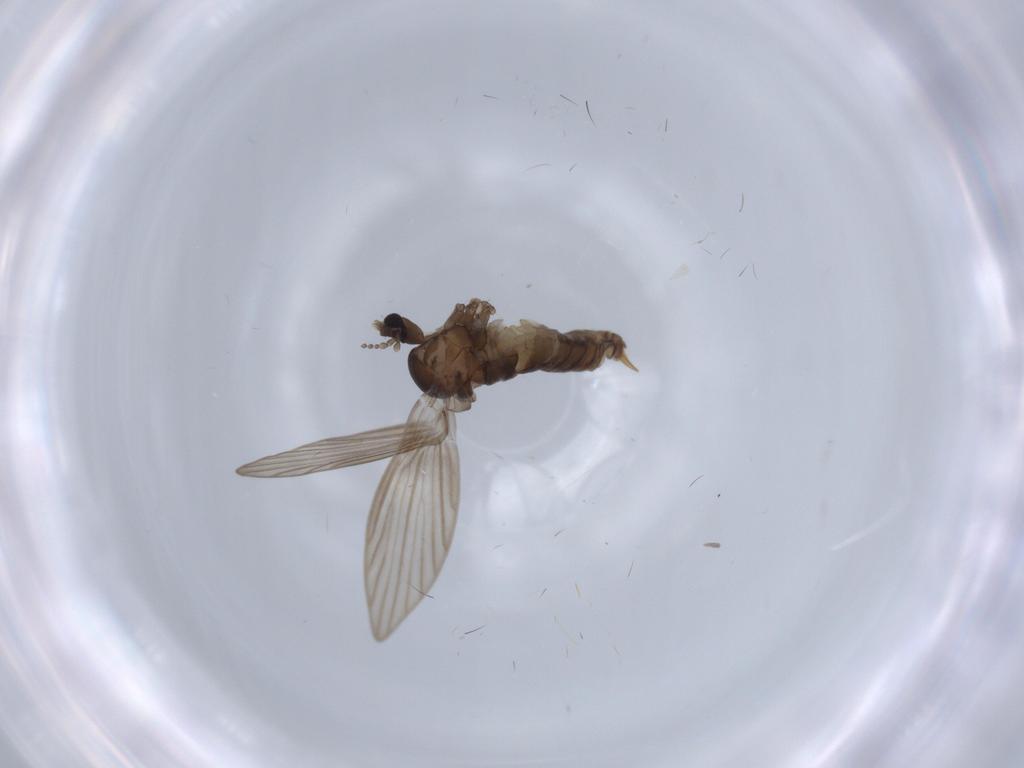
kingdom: Animalia
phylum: Arthropoda
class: Insecta
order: Diptera
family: Psychodidae
